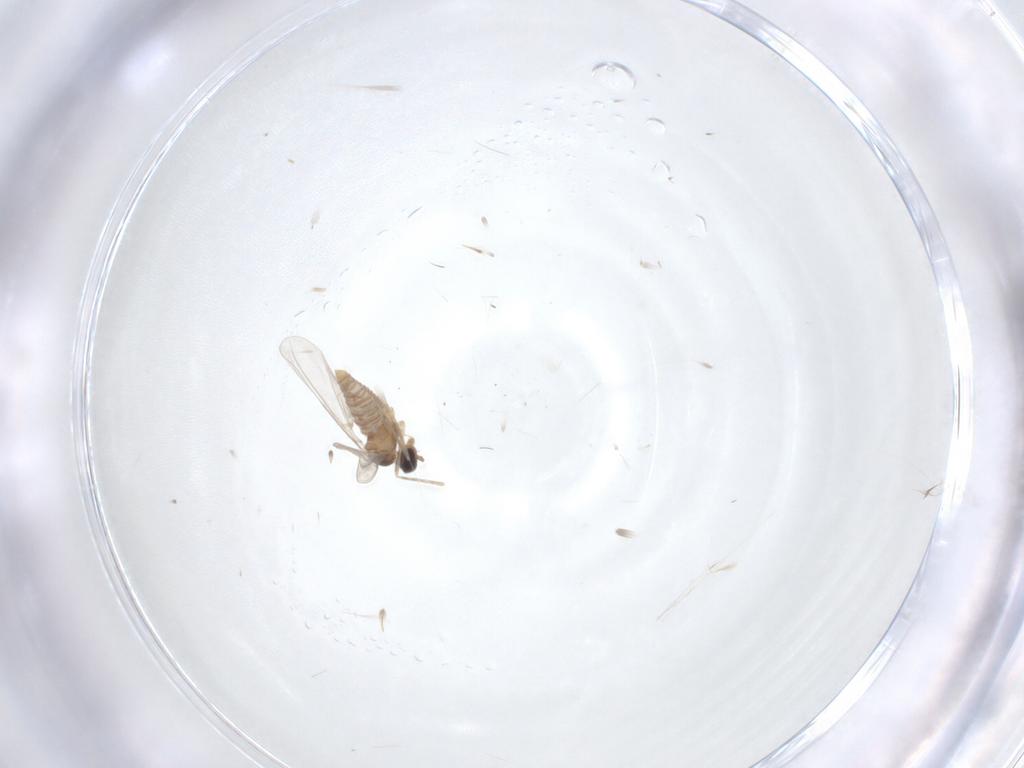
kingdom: Animalia
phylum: Arthropoda
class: Insecta
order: Diptera
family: Cecidomyiidae
